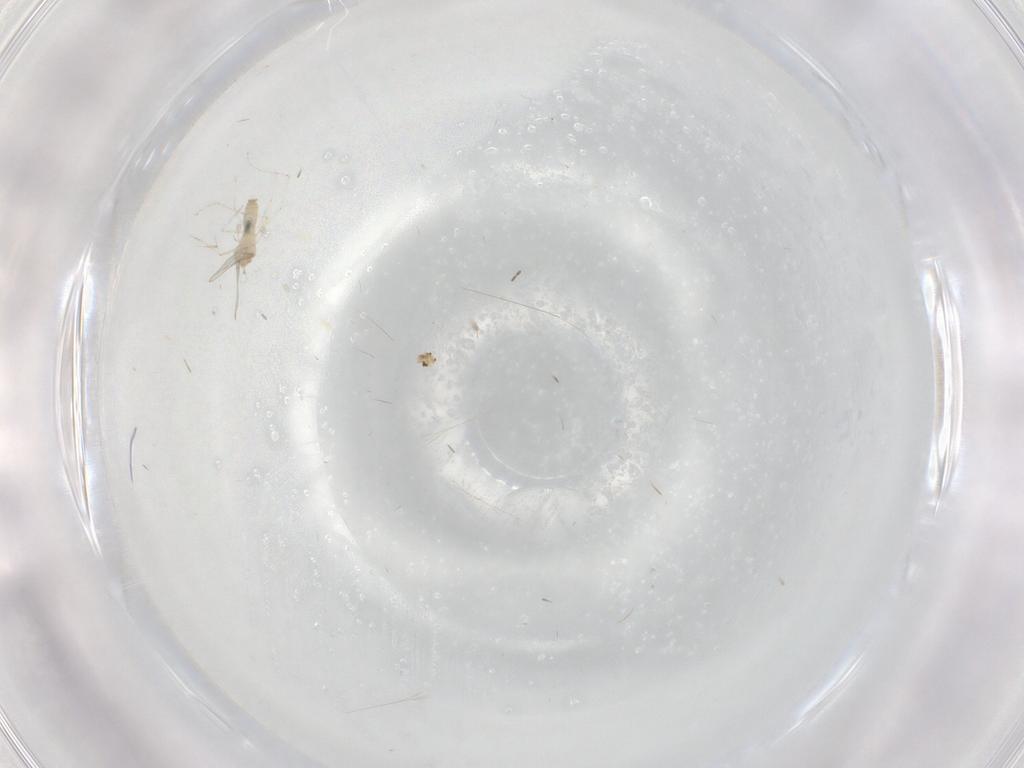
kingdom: Animalia
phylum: Arthropoda
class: Insecta
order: Diptera
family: Cecidomyiidae
